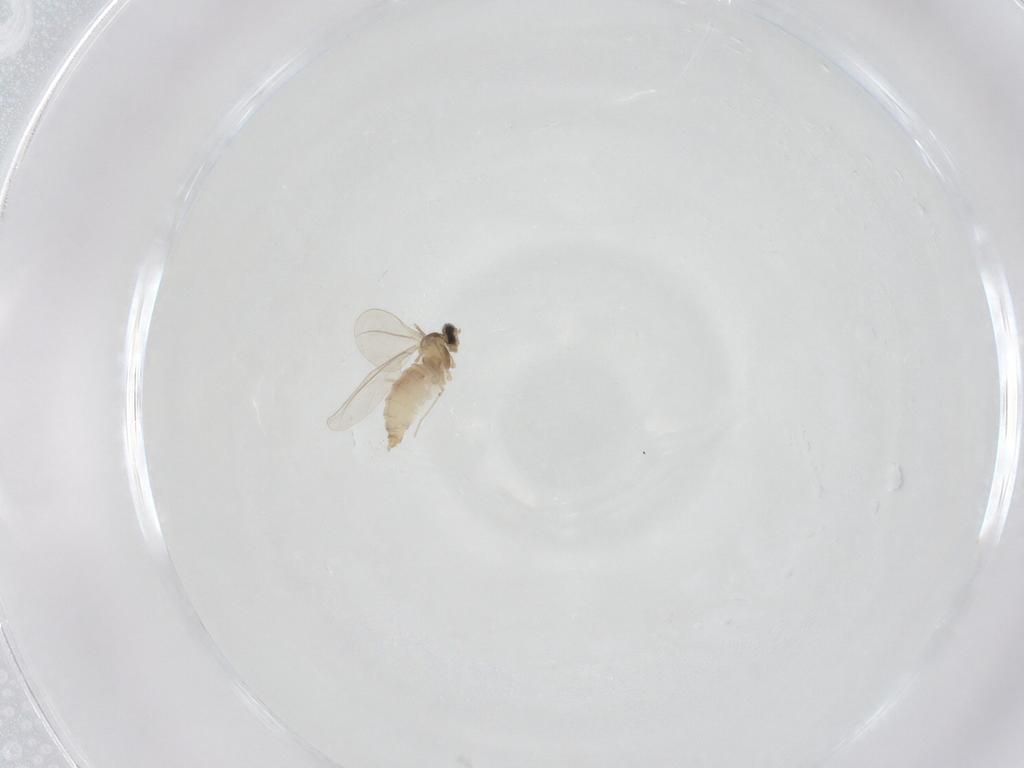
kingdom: Animalia
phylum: Arthropoda
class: Insecta
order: Diptera
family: Cecidomyiidae
